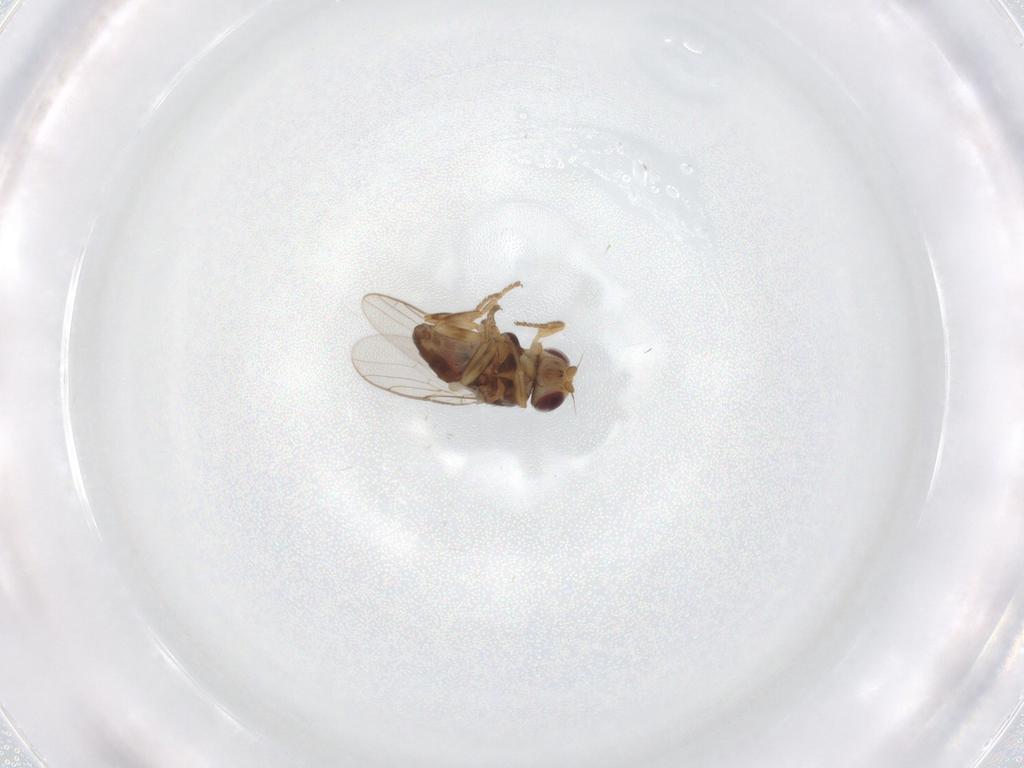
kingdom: Animalia
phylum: Arthropoda
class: Insecta
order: Diptera
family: Chloropidae
